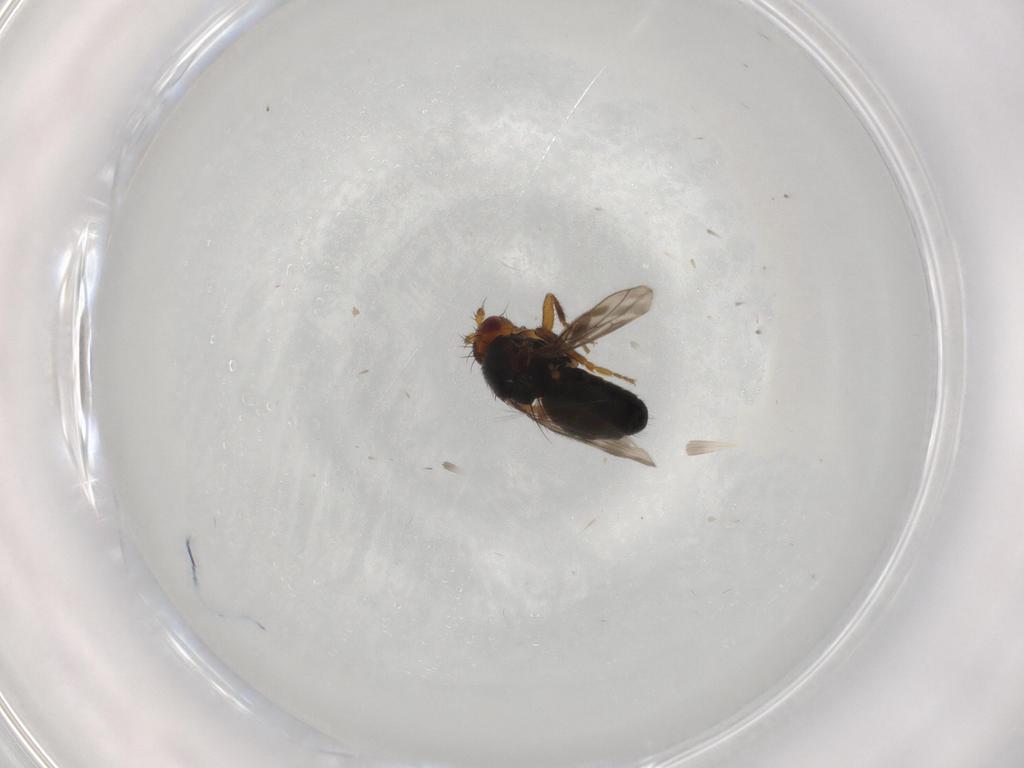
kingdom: Animalia
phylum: Arthropoda
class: Insecta
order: Diptera
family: Sphaeroceridae
